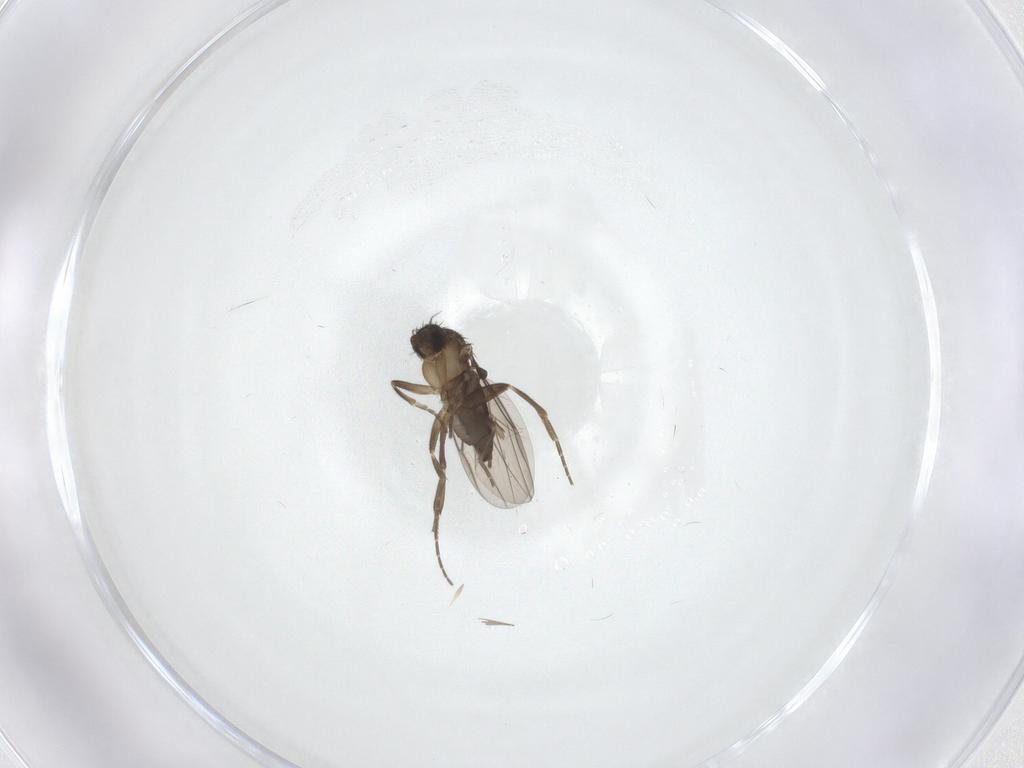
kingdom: Animalia
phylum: Arthropoda
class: Insecta
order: Diptera
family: Phoridae
